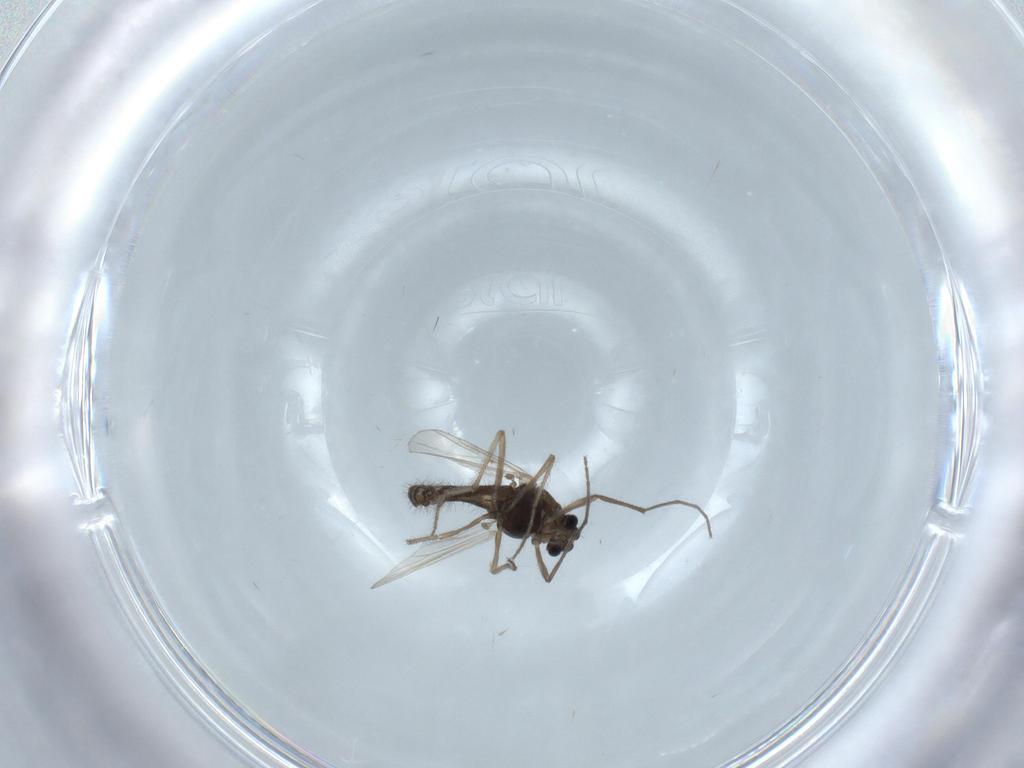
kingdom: Animalia
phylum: Arthropoda
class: Insecta
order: Diptera
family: Chironomidae
